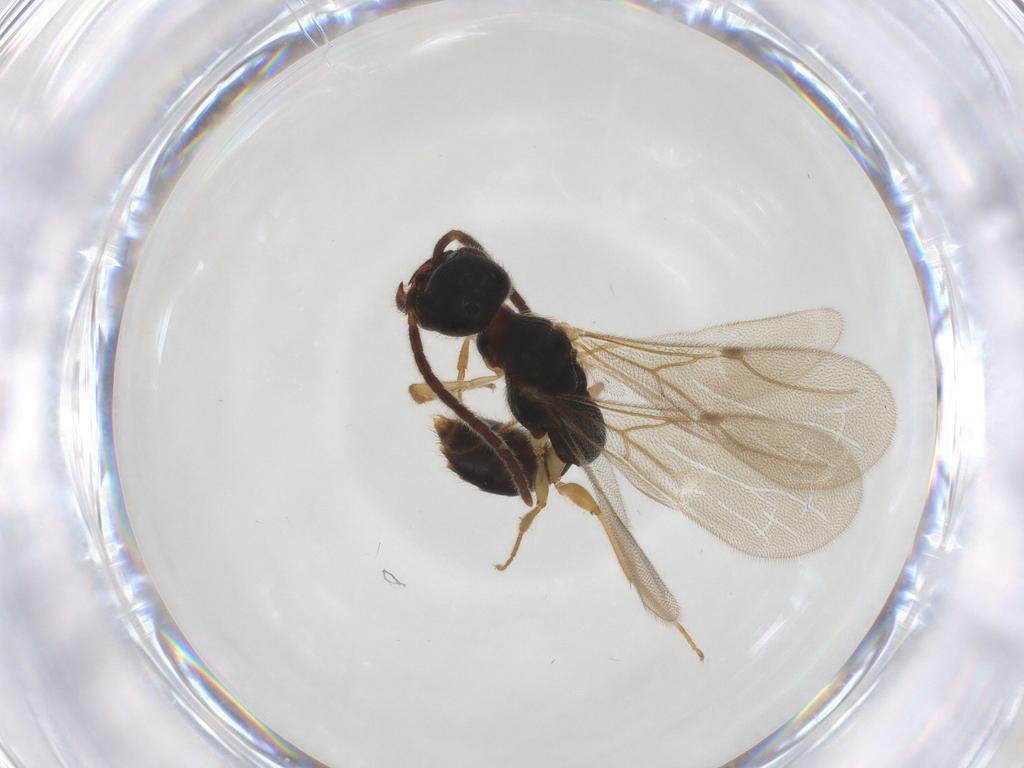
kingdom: Animalia
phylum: Arthropoda
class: Insecta
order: Hymenoptera
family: Bethylidae
